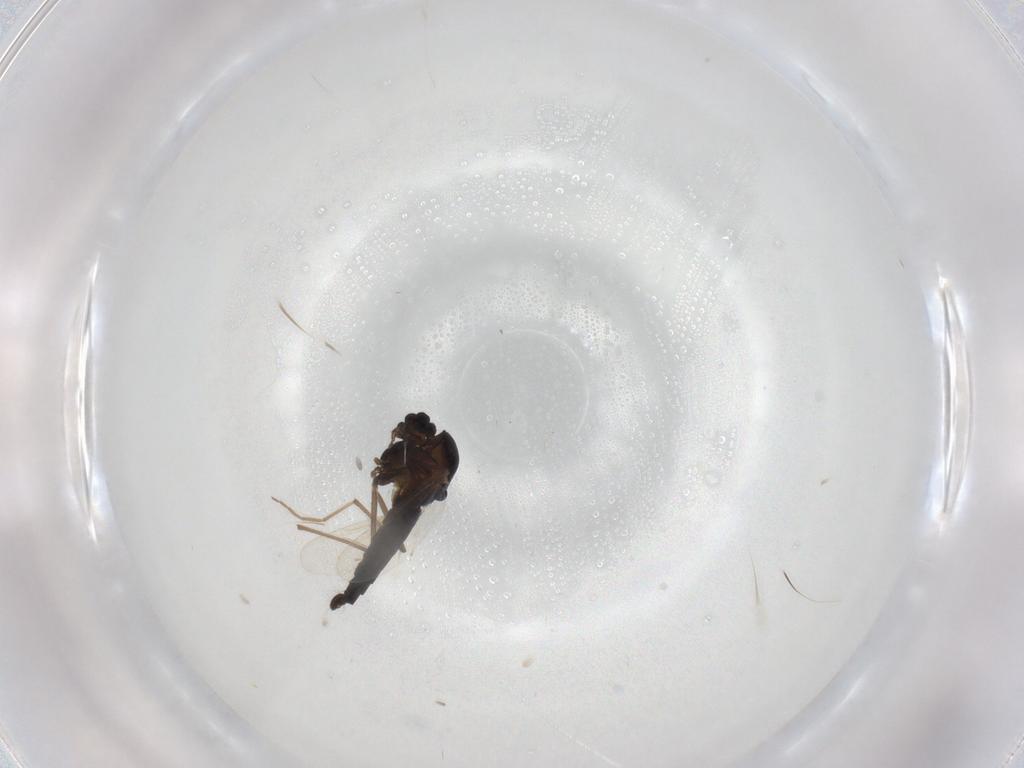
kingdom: Animalia
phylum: Arthropoda
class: Insecta
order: Diptera
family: Chironomidae
